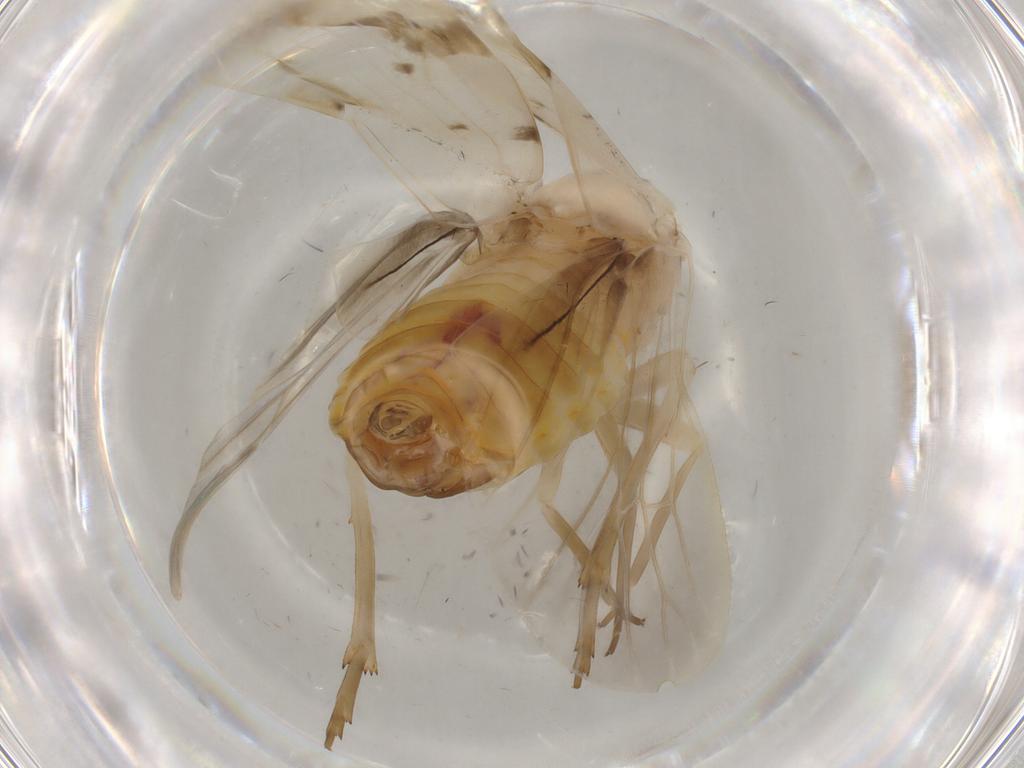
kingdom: Animalia
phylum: Arthropoda
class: Insecta
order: Hemiptera
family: Achilidae
